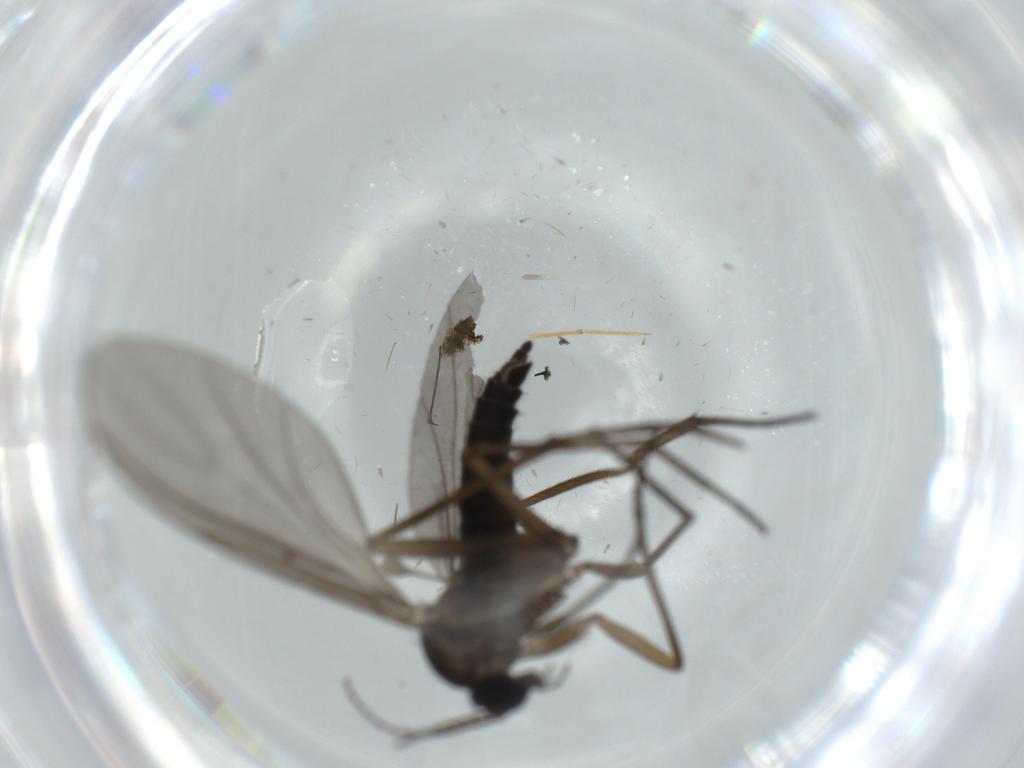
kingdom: Animalia
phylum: Arthropoda
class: Insecta
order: Diptera
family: Sciaridae
